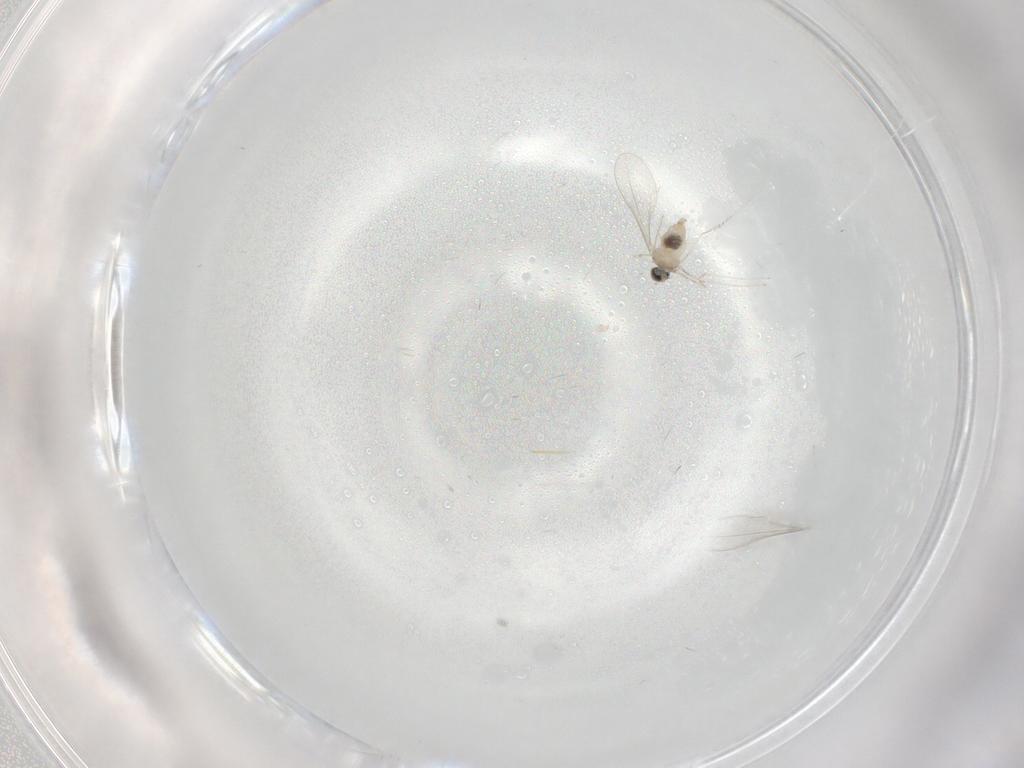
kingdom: Animalia
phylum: Arthropoda
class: Insecta
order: Diptera
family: Cecidomyiidae
